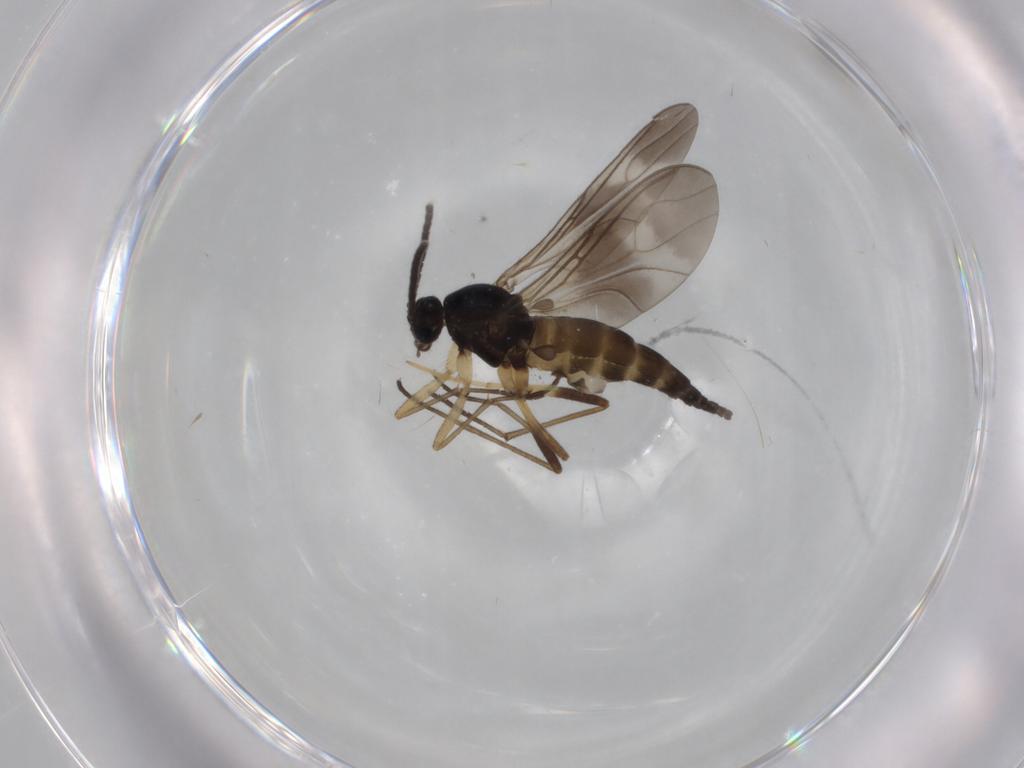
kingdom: Animalia
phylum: Arthropoda
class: Insecta
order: Diptera
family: Sciaridae
